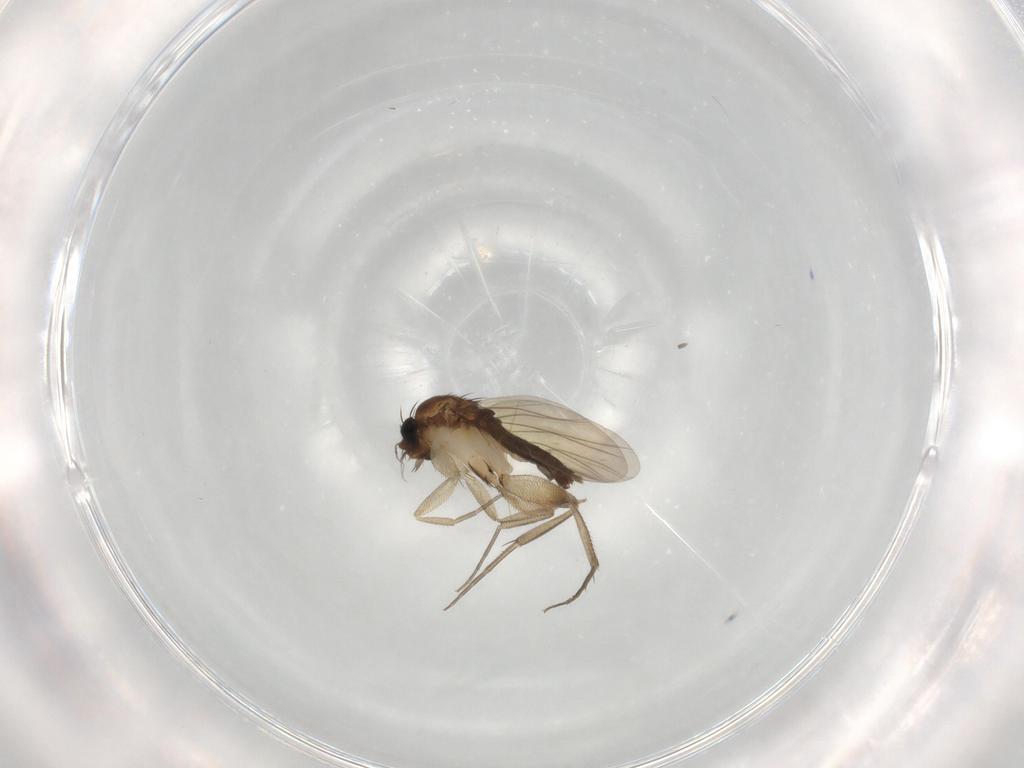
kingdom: Animalia
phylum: Arthropoda
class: Insecta
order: Diptera
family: Phoridae
